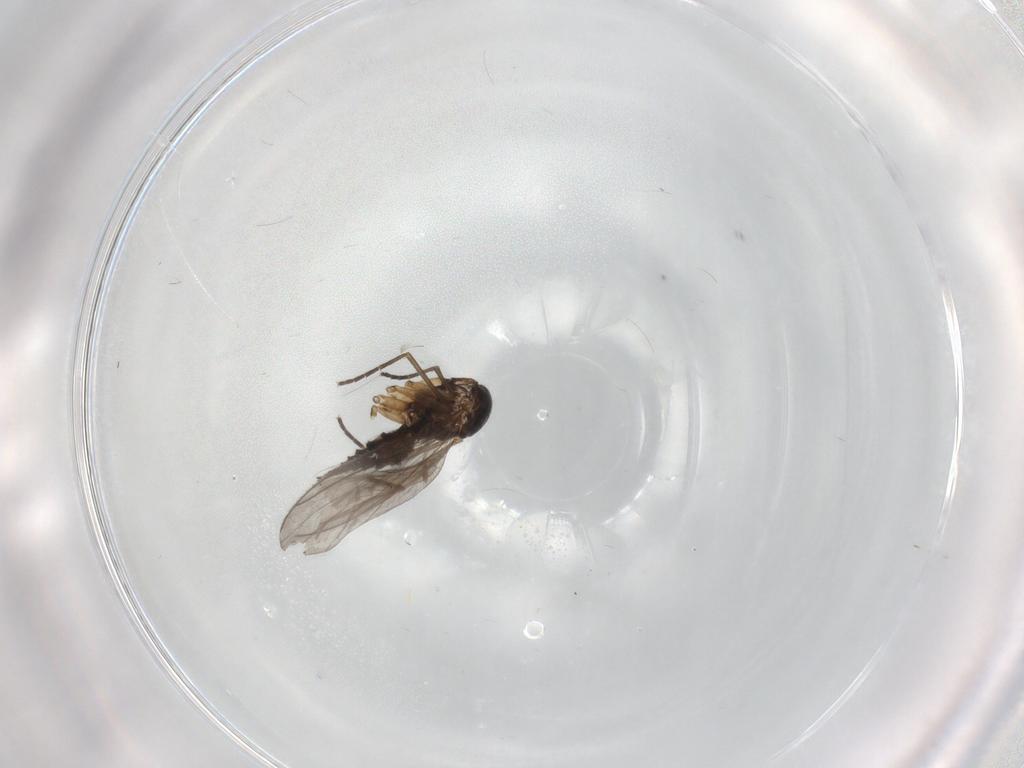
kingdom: Animalia
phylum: Arthropoda
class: Insecta
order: Diptera
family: Sciaridae
